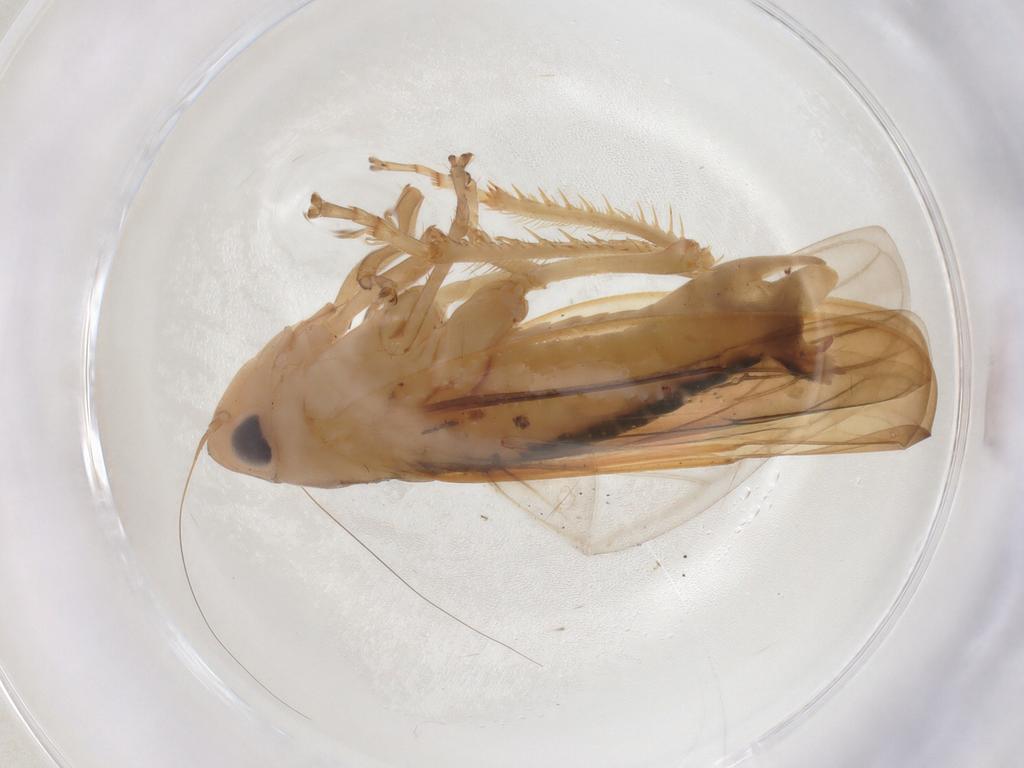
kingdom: Animalia
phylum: Arthropoda
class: Insecta
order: Hemiptera
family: Cicadellidae
